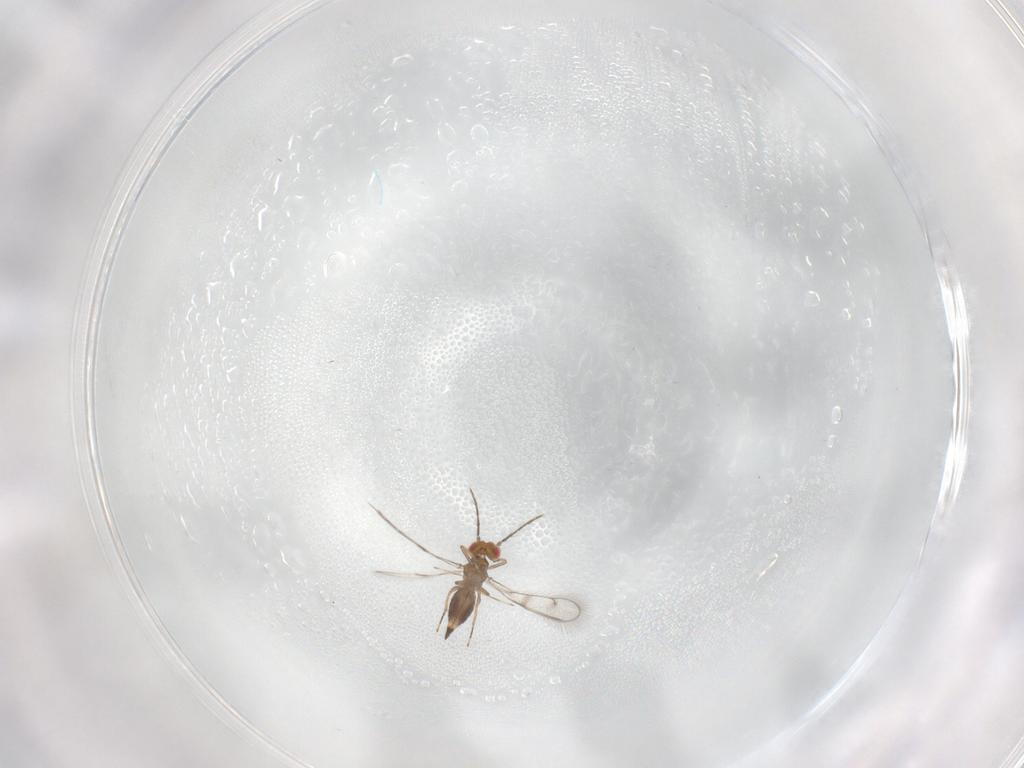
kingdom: Animalia
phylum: Arthropoda
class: Insecta
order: Hymenoptera
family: Eulophidae
